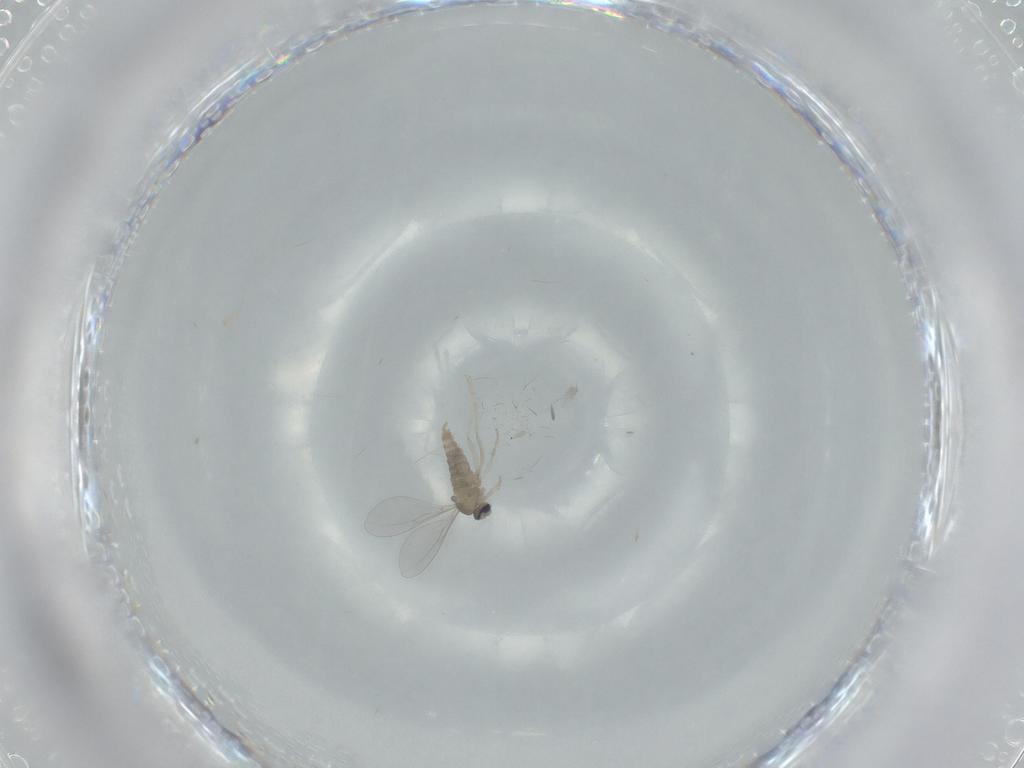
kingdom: Animalia
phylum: Arthropoda
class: Insecta
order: Diptera
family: Cecidomyiidae
